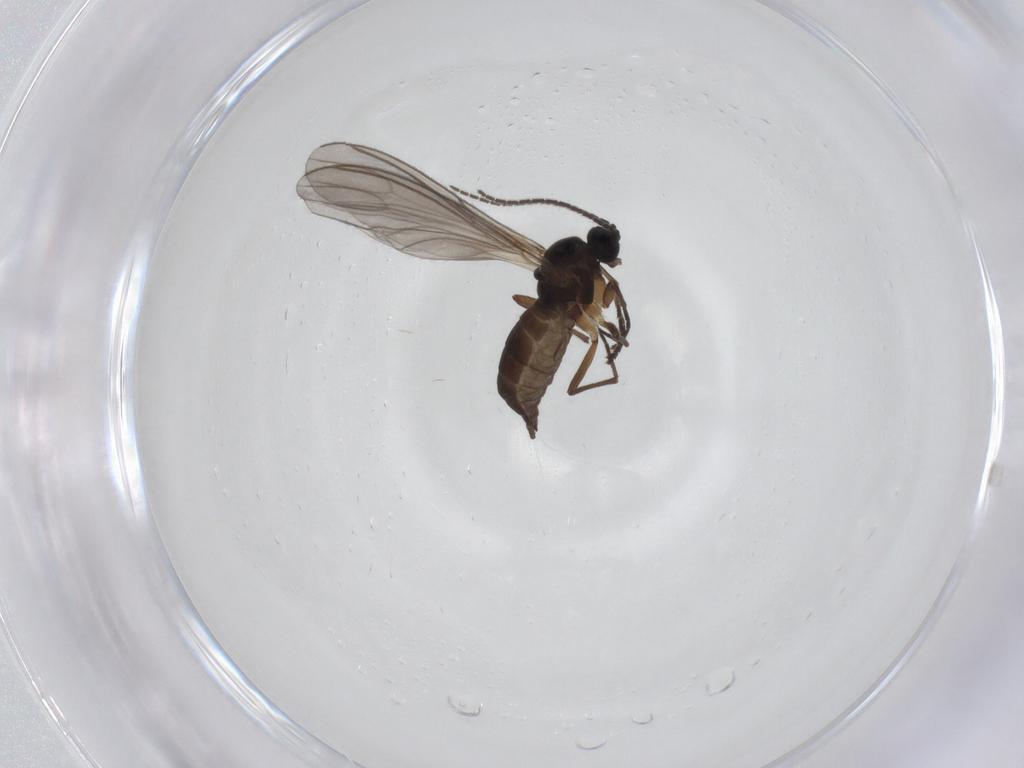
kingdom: Animalia
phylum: Arthropoda
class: Insecta
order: Diptera
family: Sciaridae
